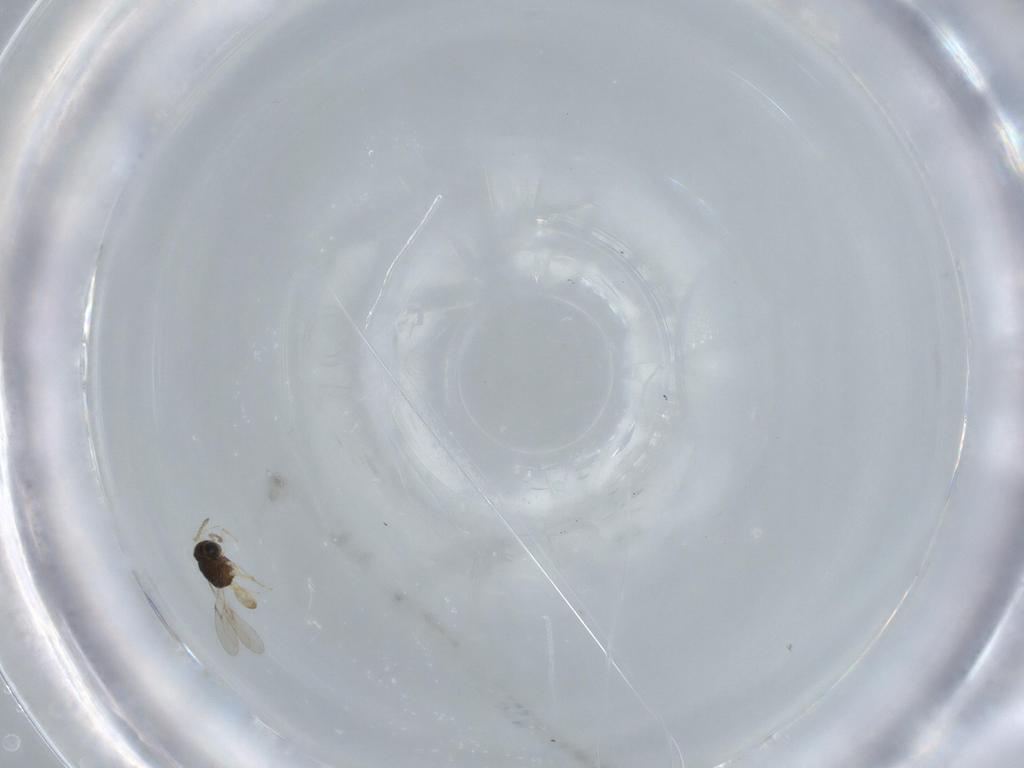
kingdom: Animalia
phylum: Arthropoda
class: Insecta
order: Hymenoptera
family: Scelionidae
